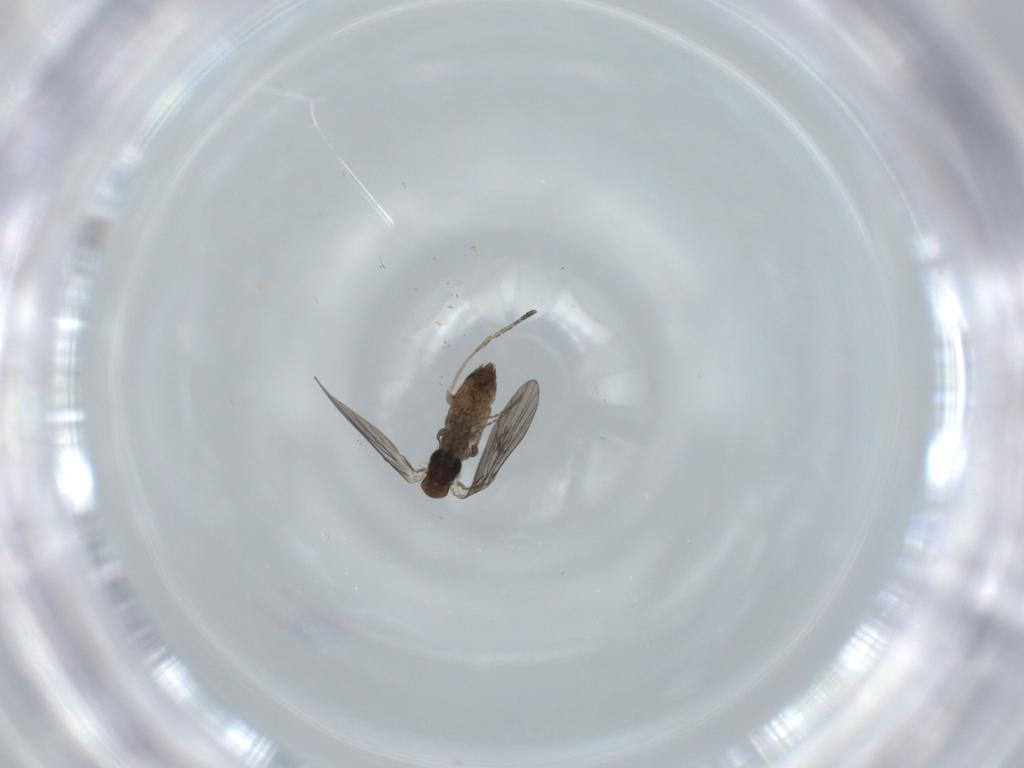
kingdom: Animalia
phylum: Arthropoda
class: Insecta
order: Diptera
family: Psychodidae
